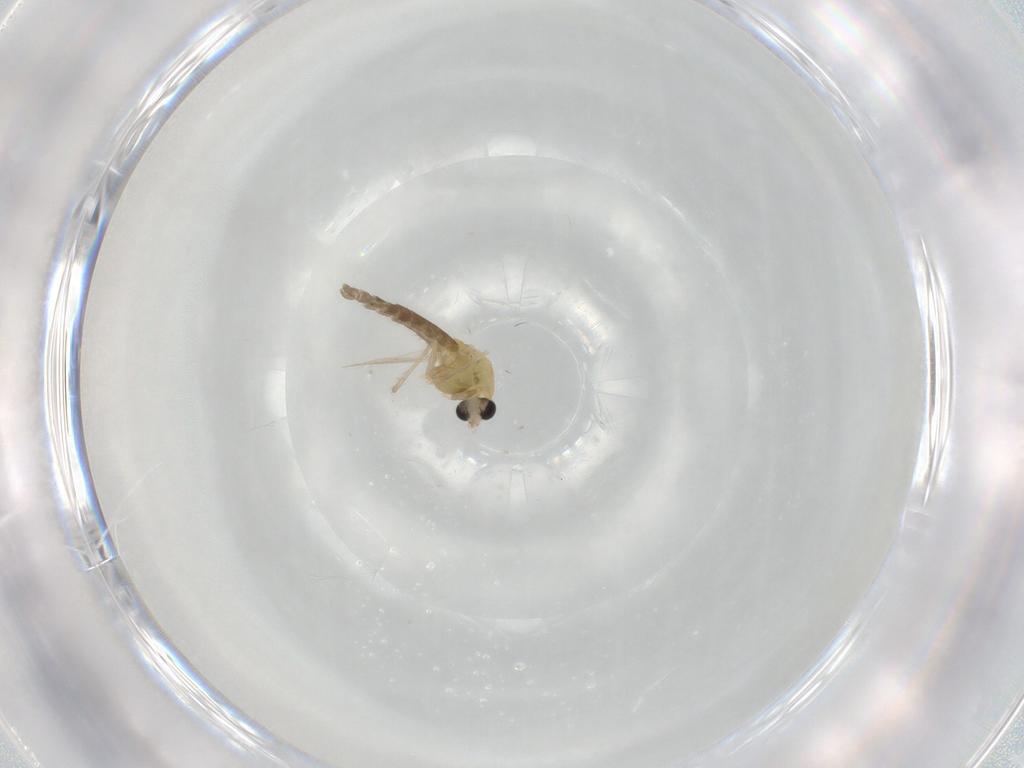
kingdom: Animalia
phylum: Arthropoda
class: Insecta
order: Diptera
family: Chironomidae
